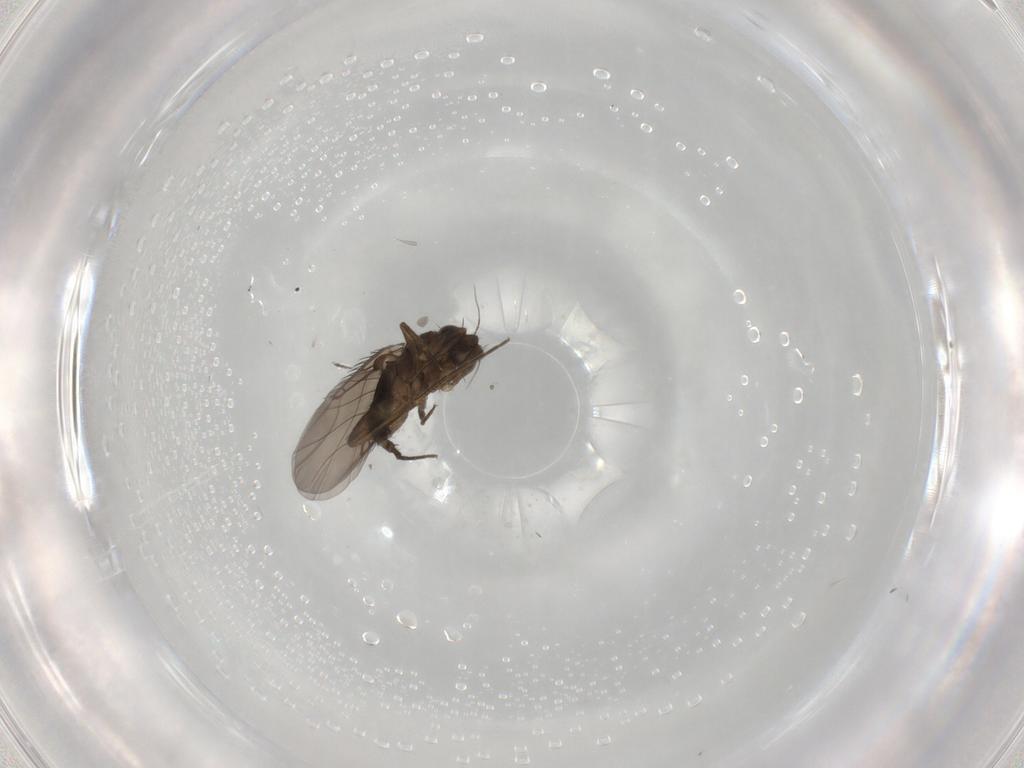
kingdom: Animalia
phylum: Arthropoda
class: Insecta
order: Diptera
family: Phoridae
